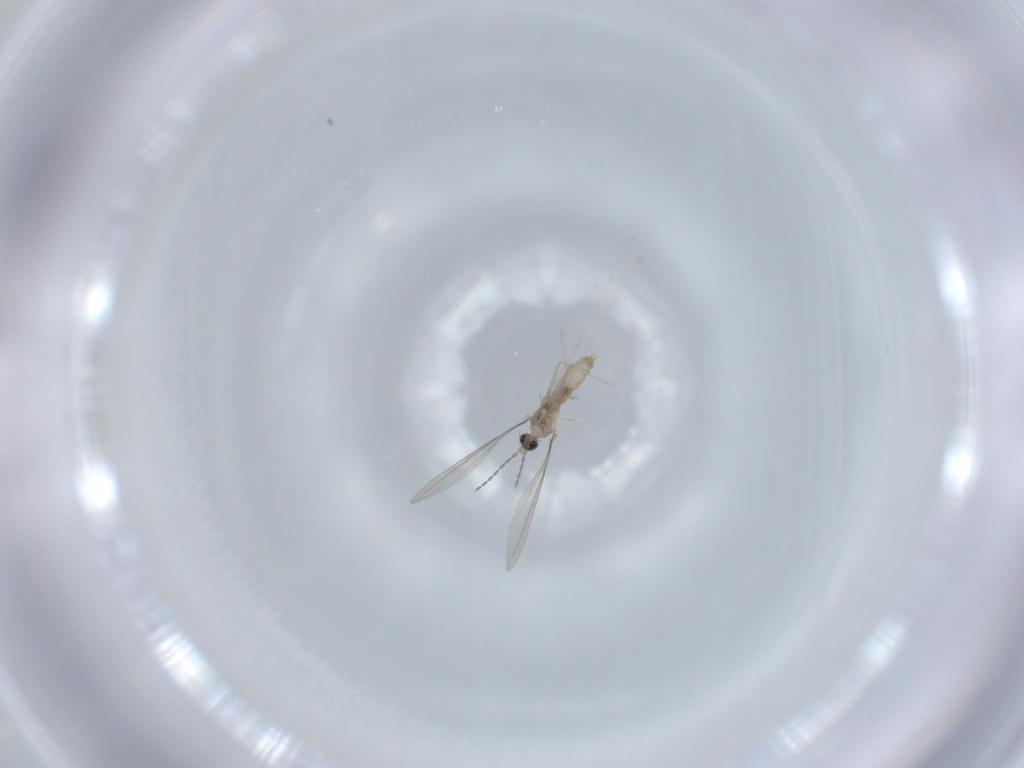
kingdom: Animalia
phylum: Arthropoda
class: Insecta
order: Diptera
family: Cecidomyiidae
